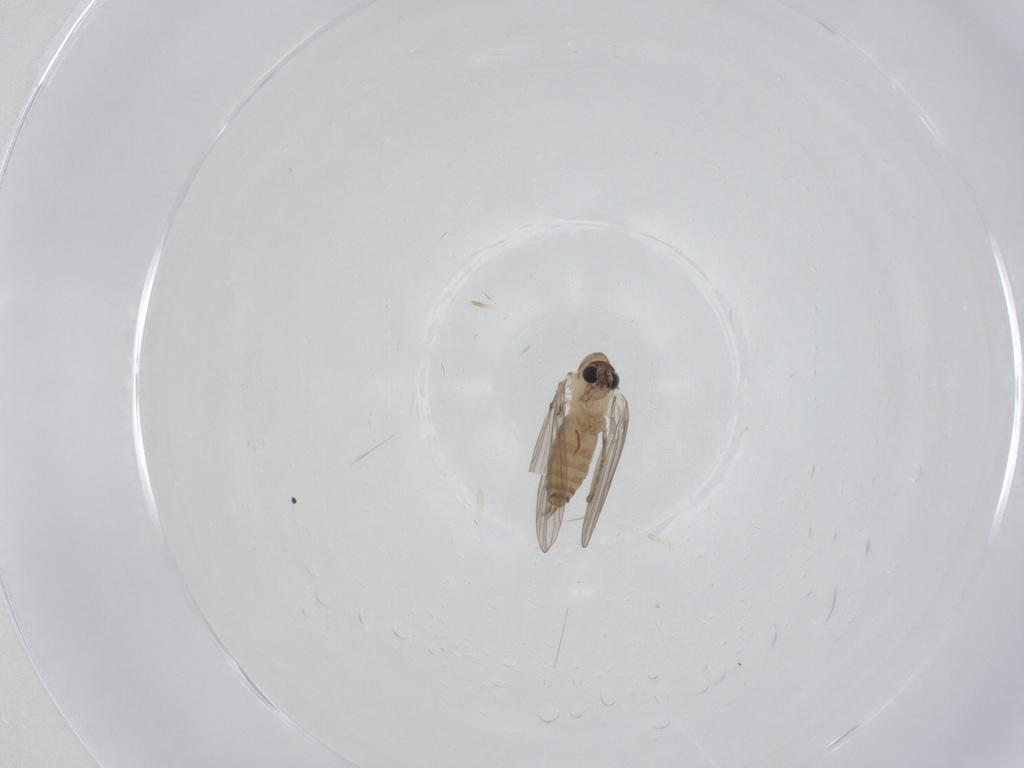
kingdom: Animalia
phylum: Arthropoda
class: Insecta
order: Diptera
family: Psychodidae
